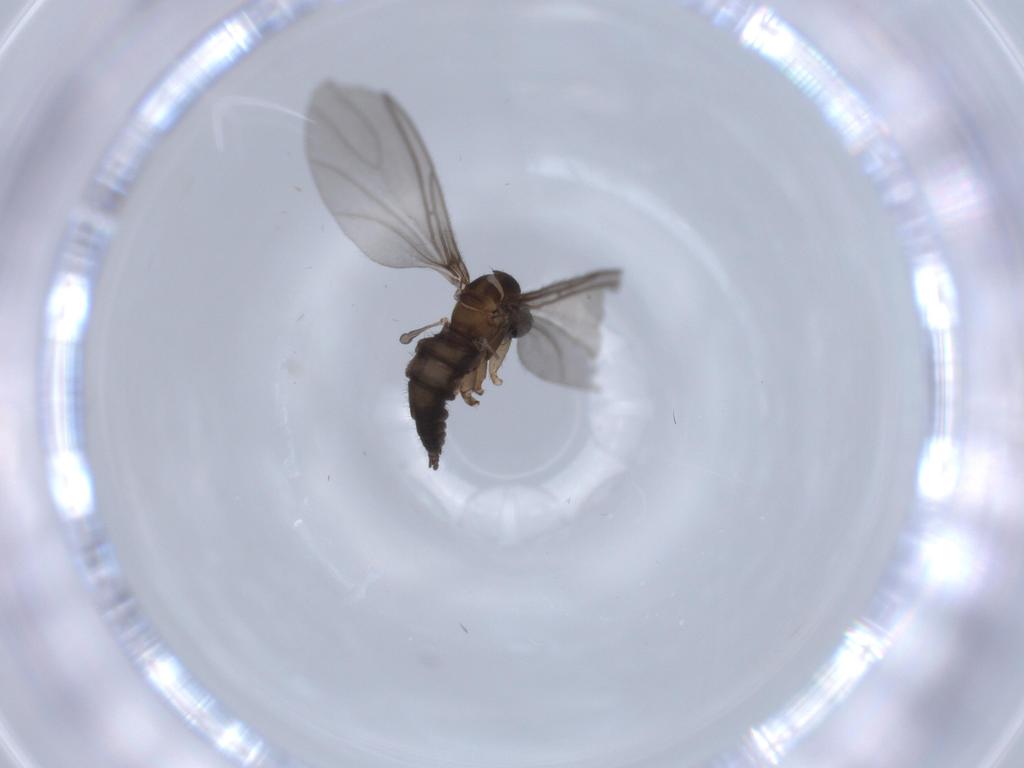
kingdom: Animalia
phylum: Arthropoda
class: Insecta
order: Diptera
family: Sciaridae
